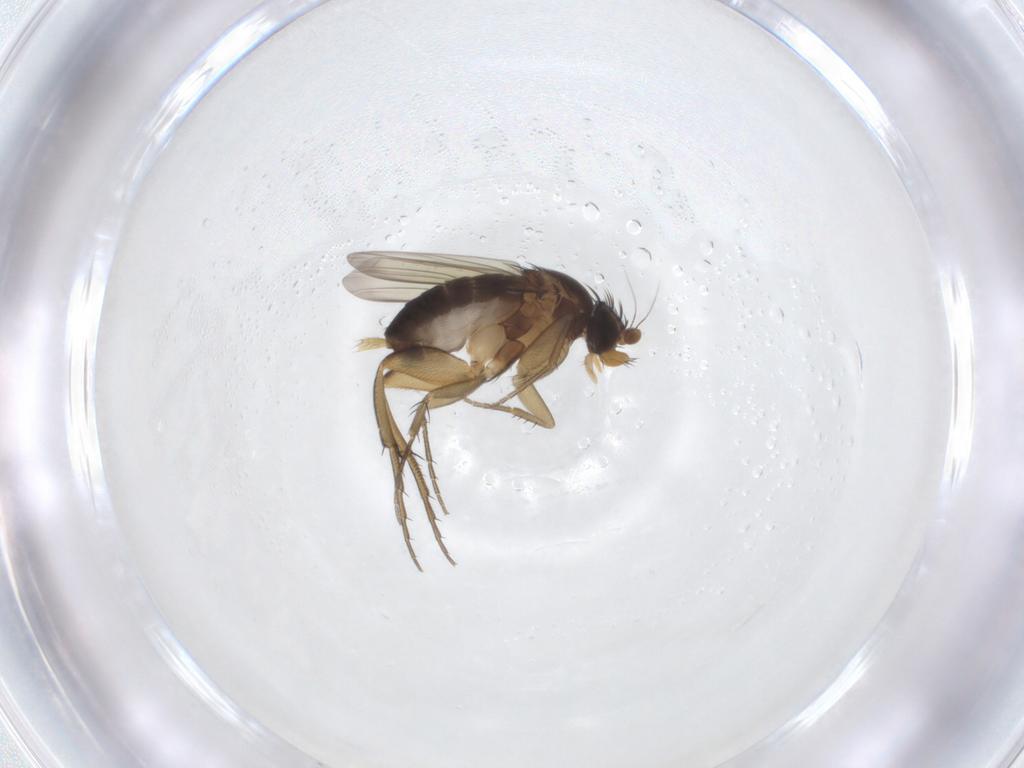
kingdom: Animalia
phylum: Arthropoda
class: Insecta
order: Diptera
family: Phoridae
